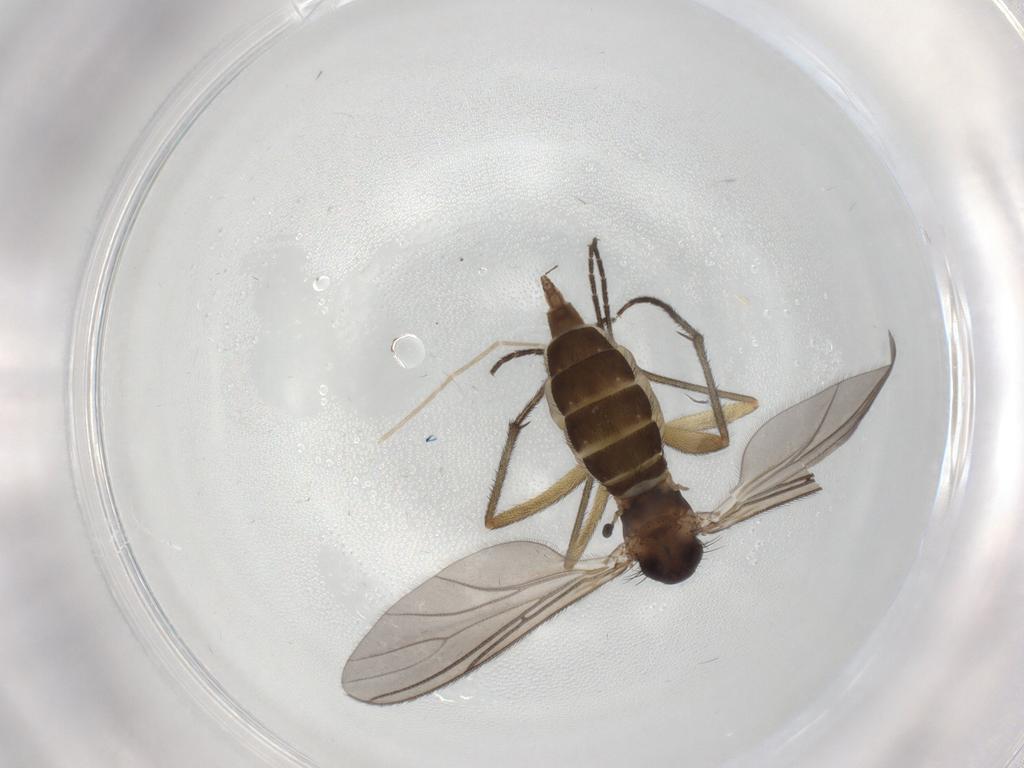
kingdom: Animalia
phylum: Arthropoda
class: Insecta
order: Diptera
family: Sciaridae
